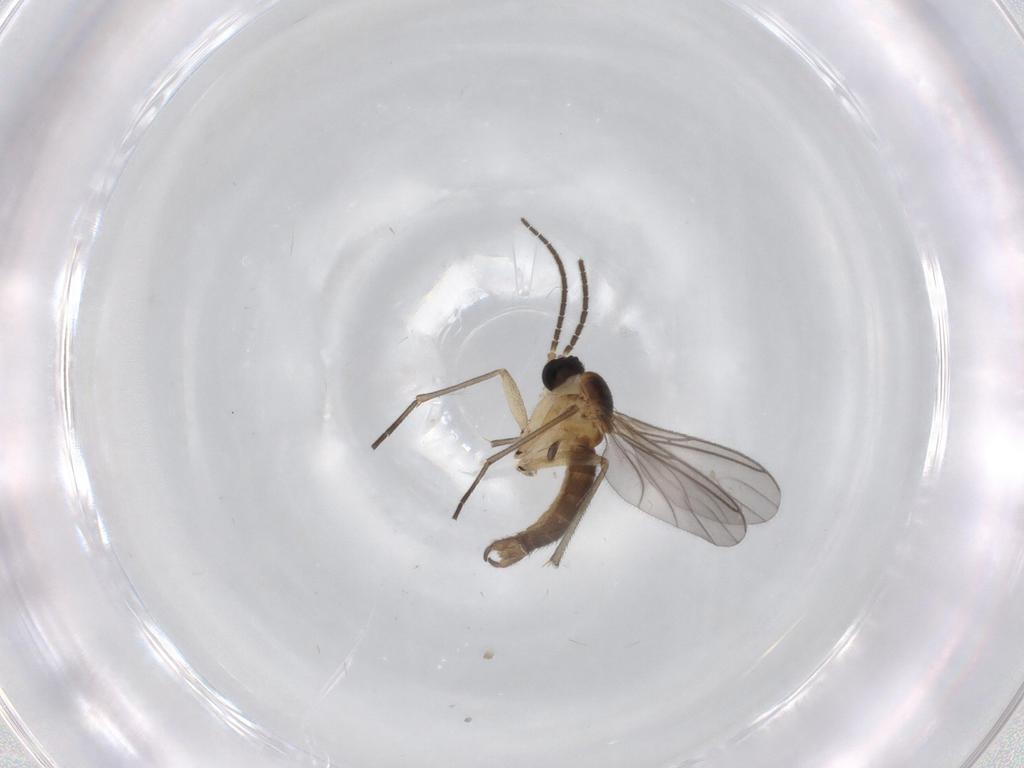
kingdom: Animalia
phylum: Arthropoda
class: Insecta
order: Diptera
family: Sciaridae
